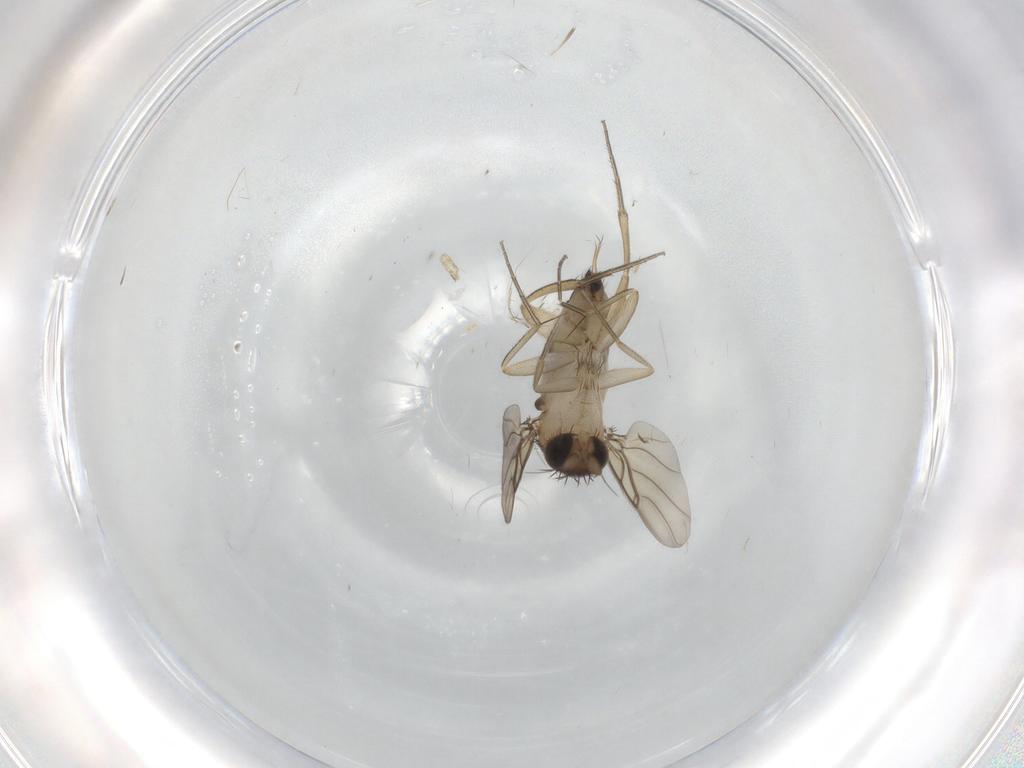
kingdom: Animalia
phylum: Arthropoda
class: Insecta
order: Diptera
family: Phoridae
